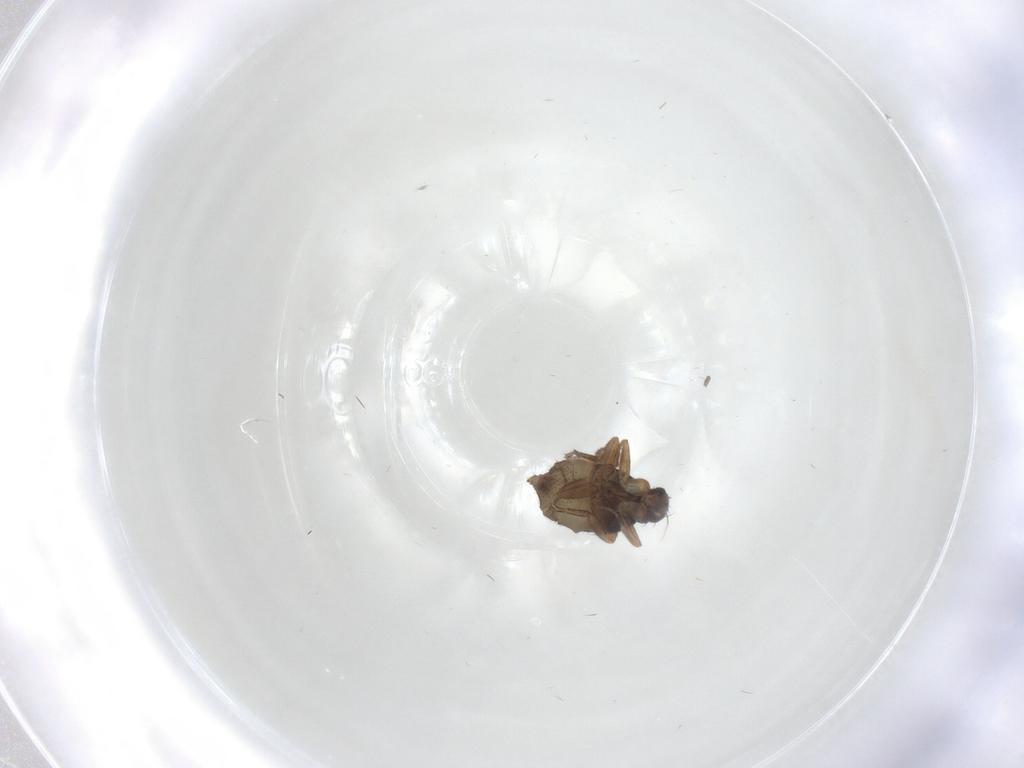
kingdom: Animalia
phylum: Arthropoda
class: Insecta
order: Diptera
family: Phoridae
